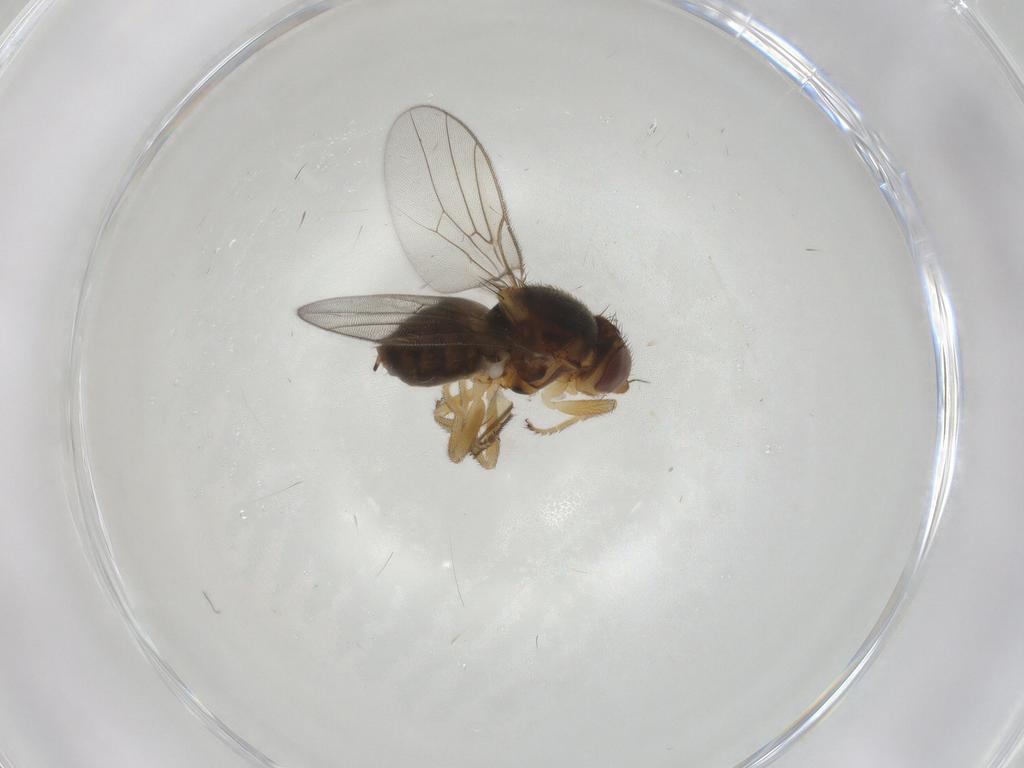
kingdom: Animalia
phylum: Arthropoda
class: Insecta
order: Diptera
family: Chloropidae
